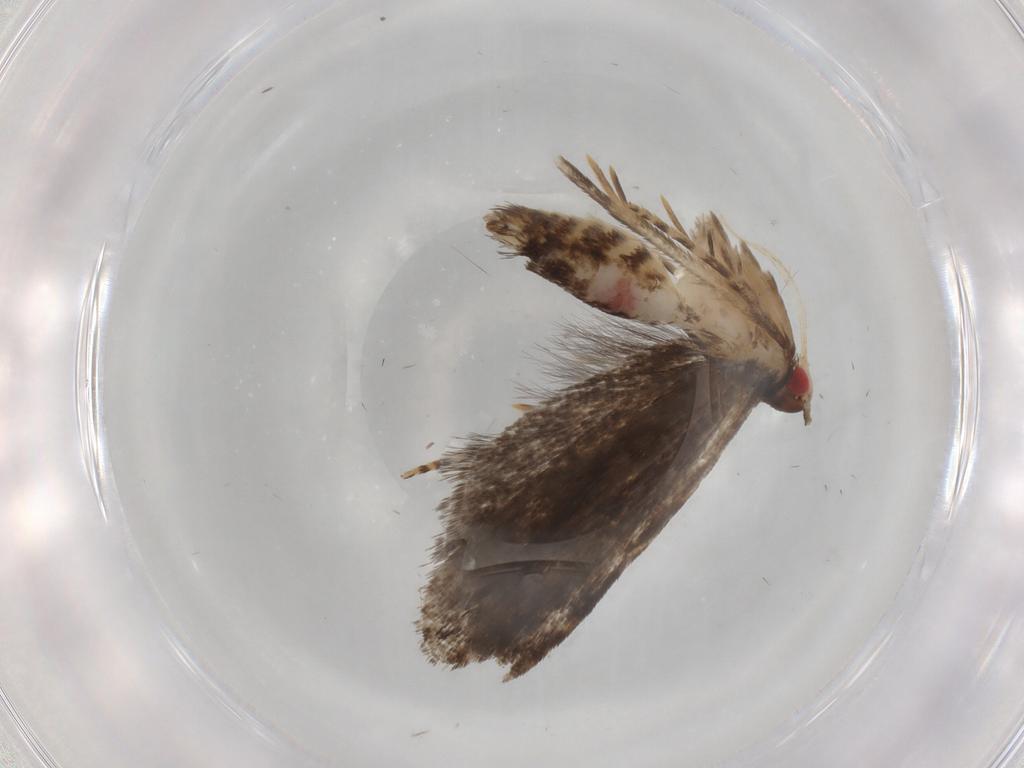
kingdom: Animalia
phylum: Arthropoda
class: Insecta
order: Lepidoptera
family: Gelechiidae
